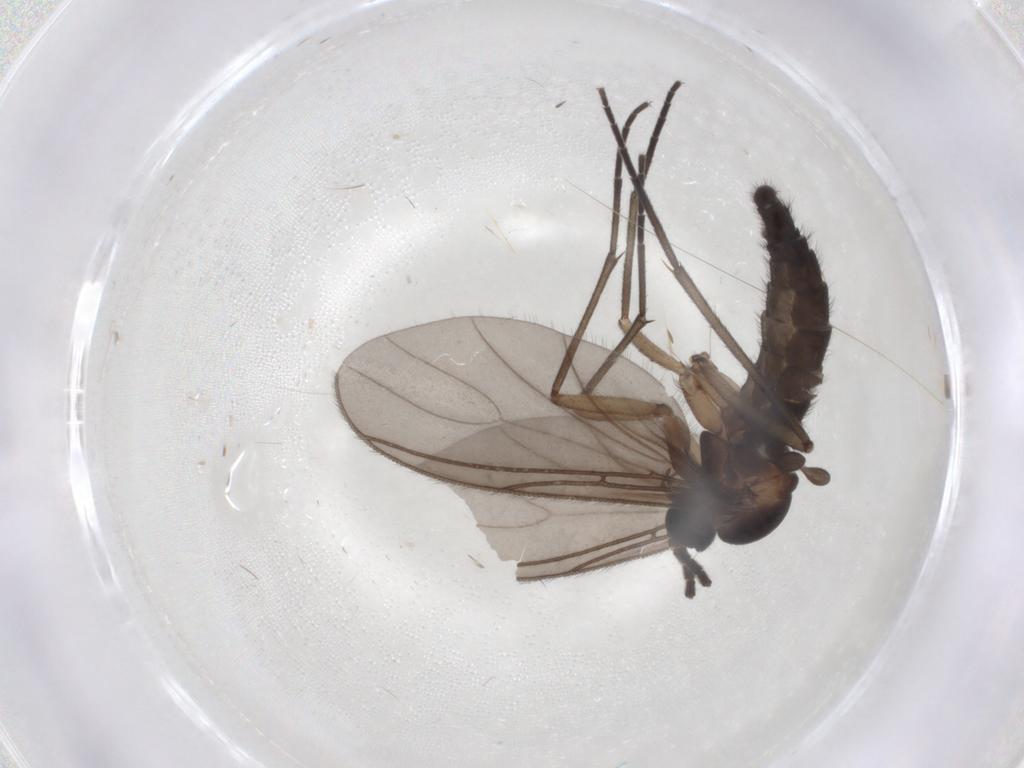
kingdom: Animalia
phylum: Arthropoda
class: Insecta
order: Diptera
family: Sciaridae
